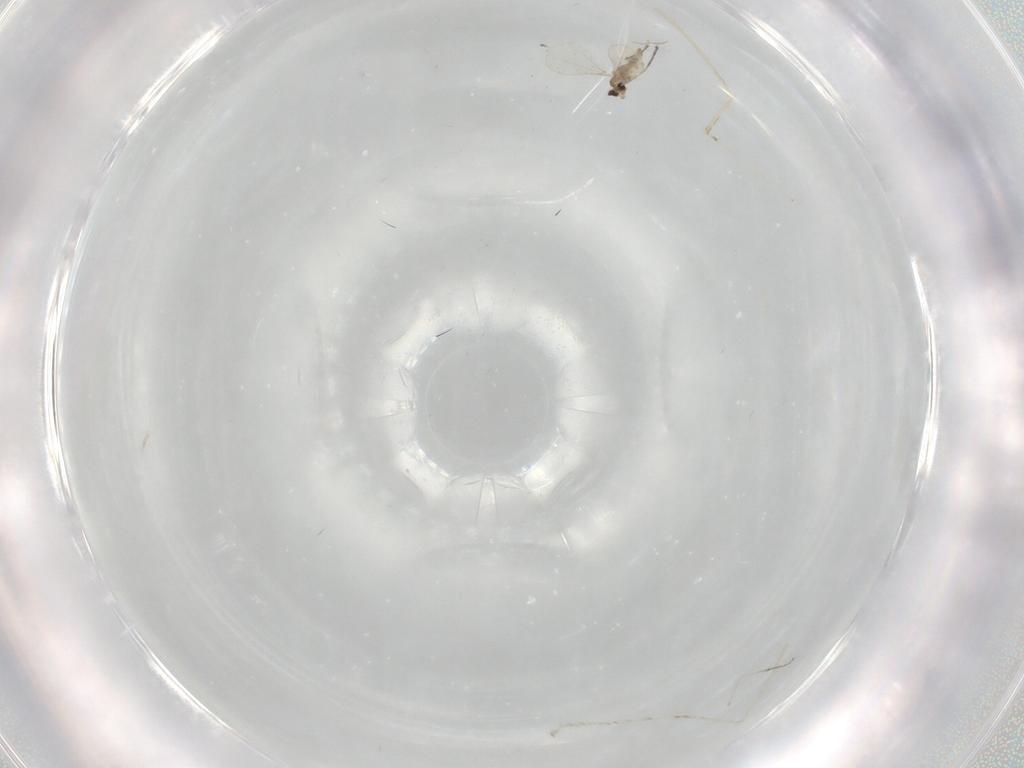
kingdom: Animalia
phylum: Arthropoda
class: Insecta
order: Diptera
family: Cecidomyiidae
